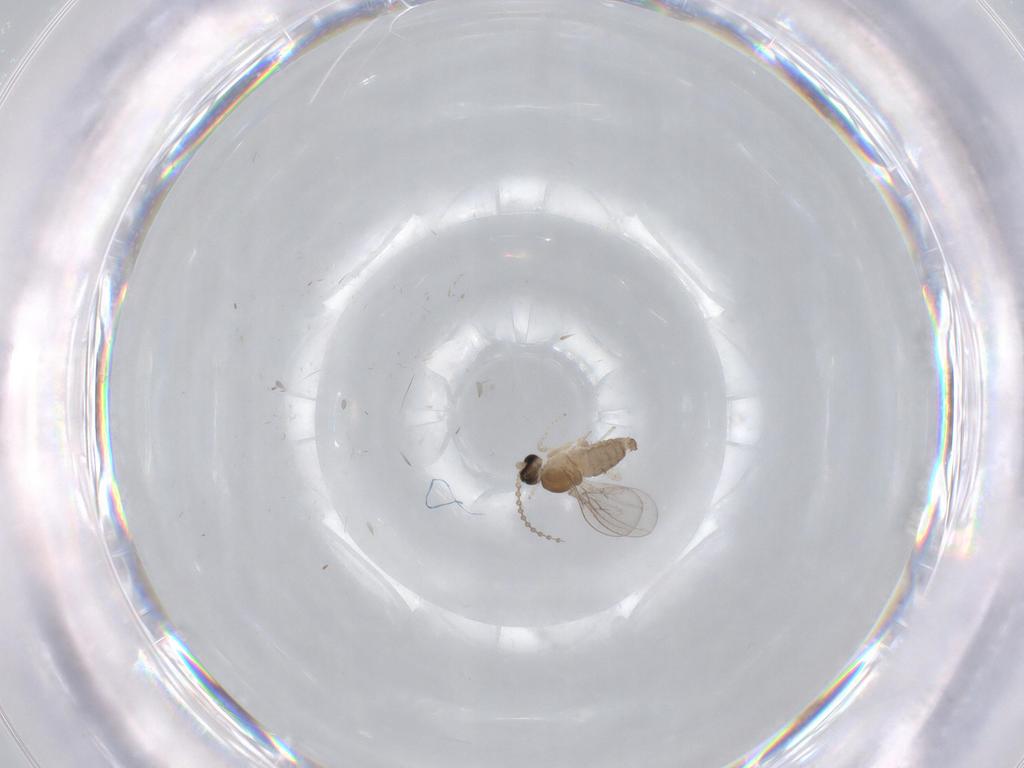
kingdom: Animalia
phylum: Arthropoda
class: Insecta
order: Diptera
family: Cecidomyiidae
